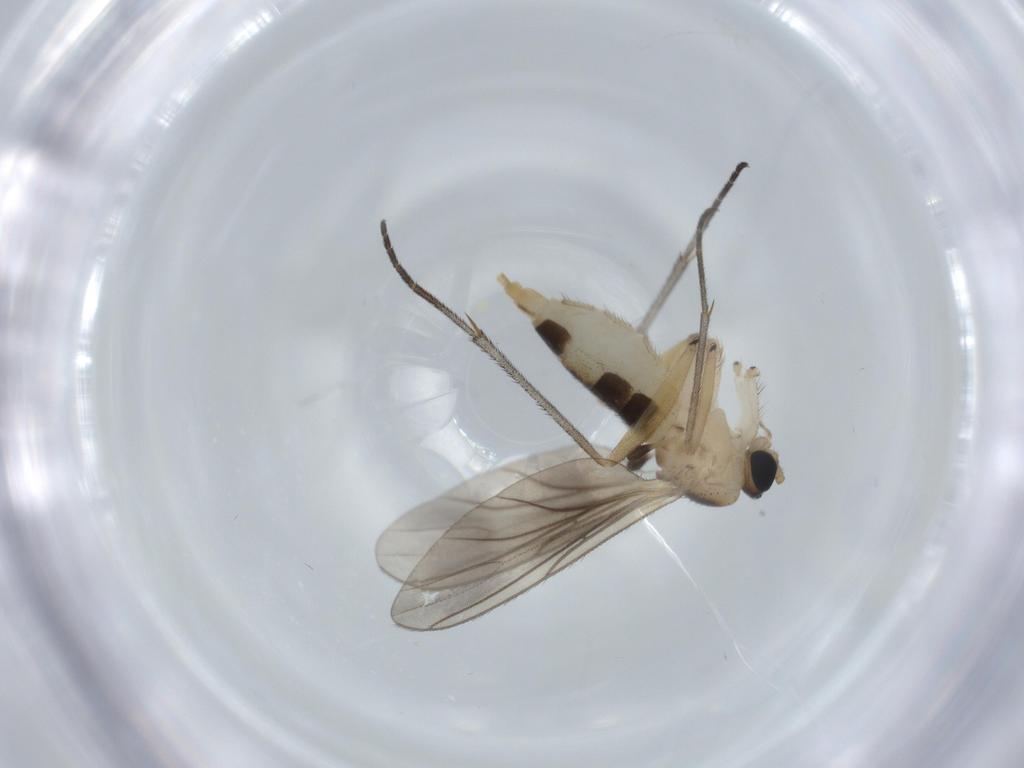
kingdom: Animalia
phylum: Arthropoda
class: Insecta
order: Diptera
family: Sciaridae
